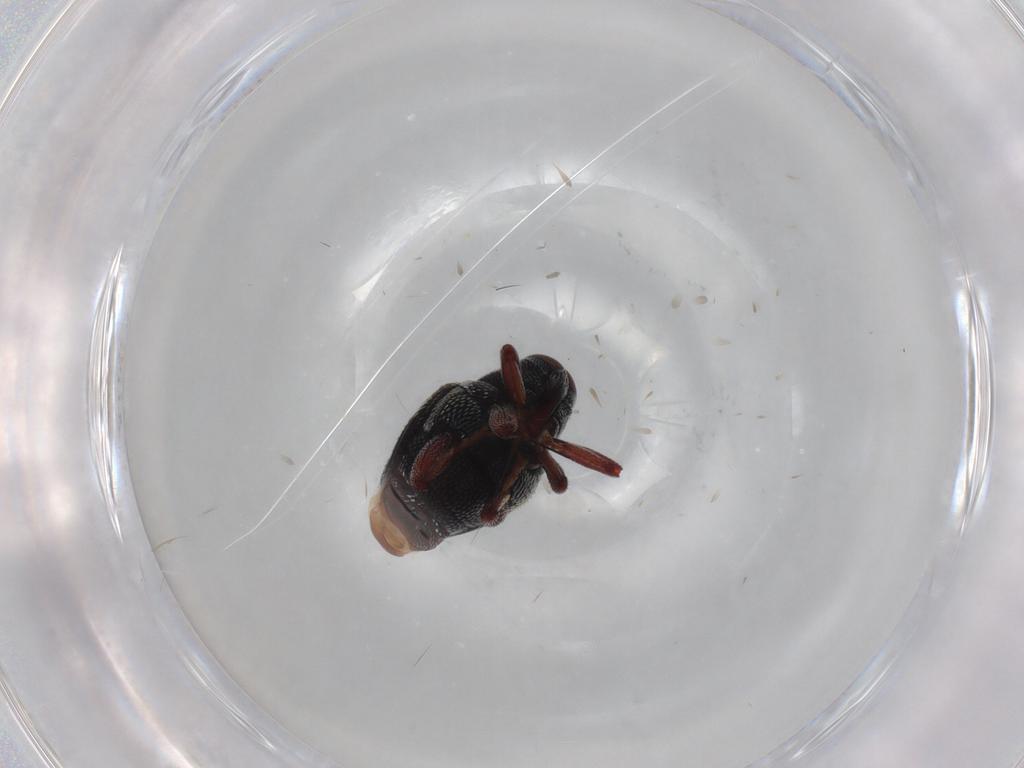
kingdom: Animalia
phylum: Arthropoda
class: Insecta
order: Coleoptera
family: Curculionidae
